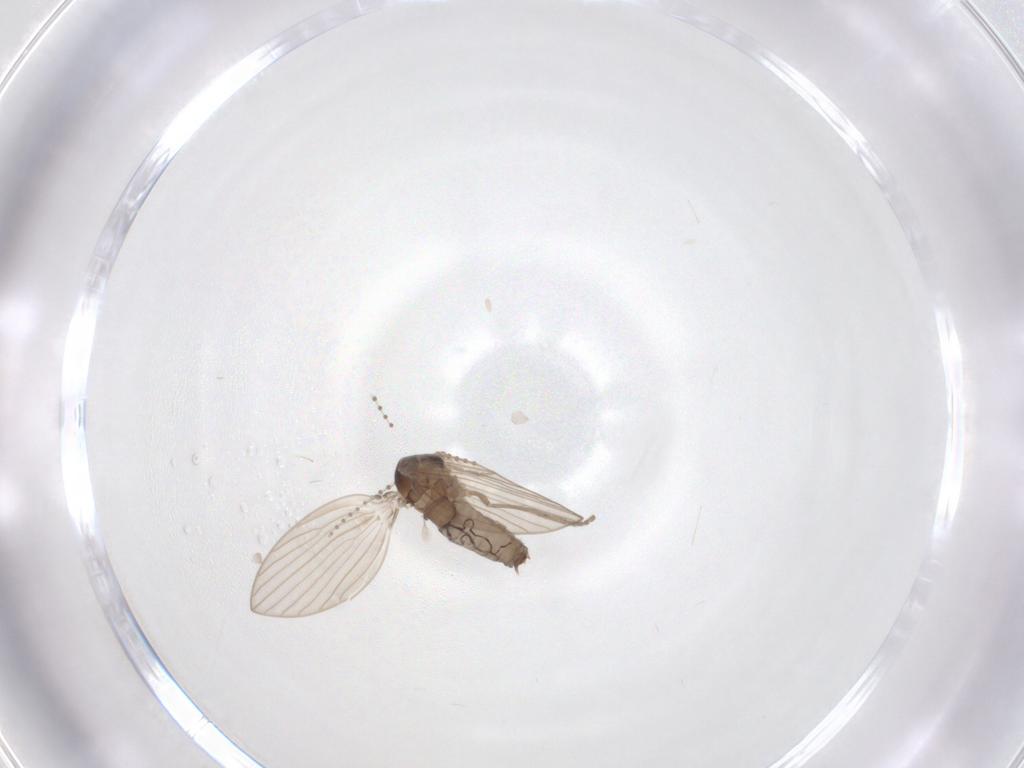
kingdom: Animalia
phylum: Arthropoda
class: Insecta
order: Diptera
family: Psychodidae
